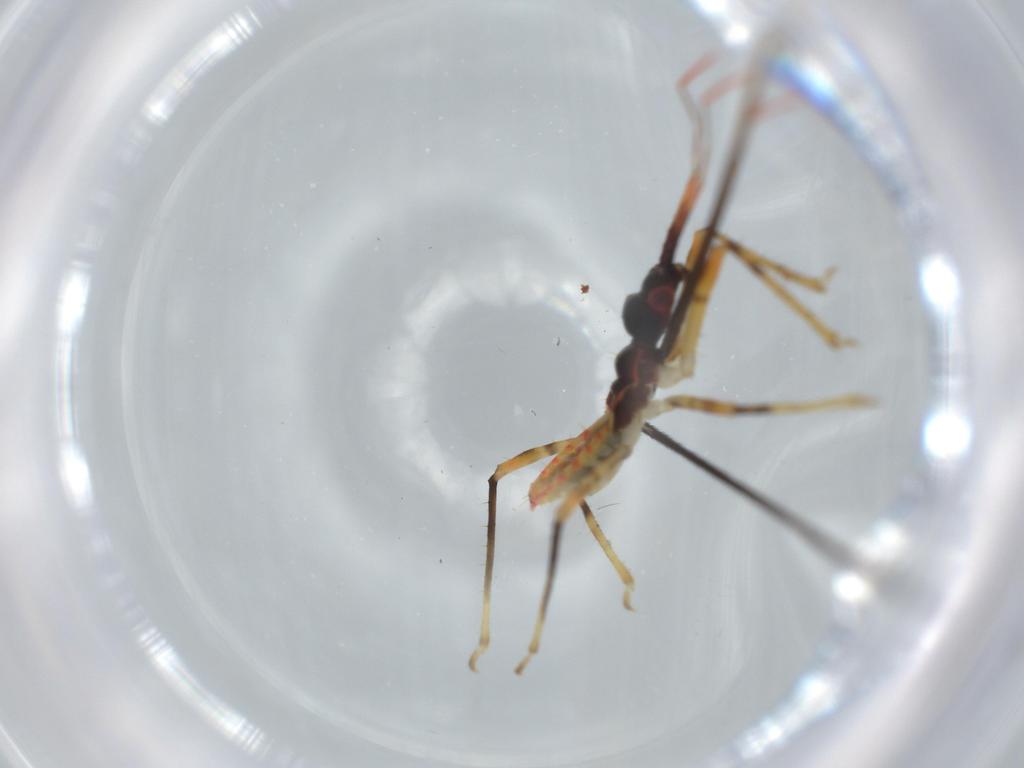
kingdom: Animalia
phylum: Arthropoda
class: Insecta
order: Hemiptera
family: Reduviidae
